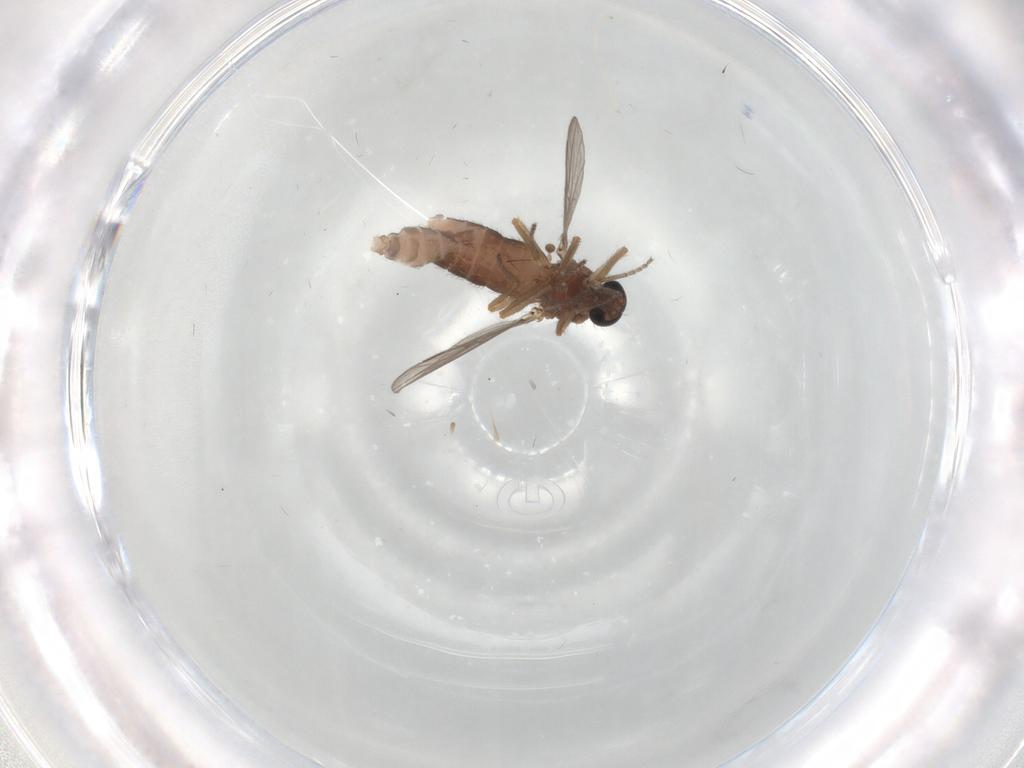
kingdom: Animalia
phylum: Arthropoda
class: Insecta
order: Diptera
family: Ceratopogonidae
